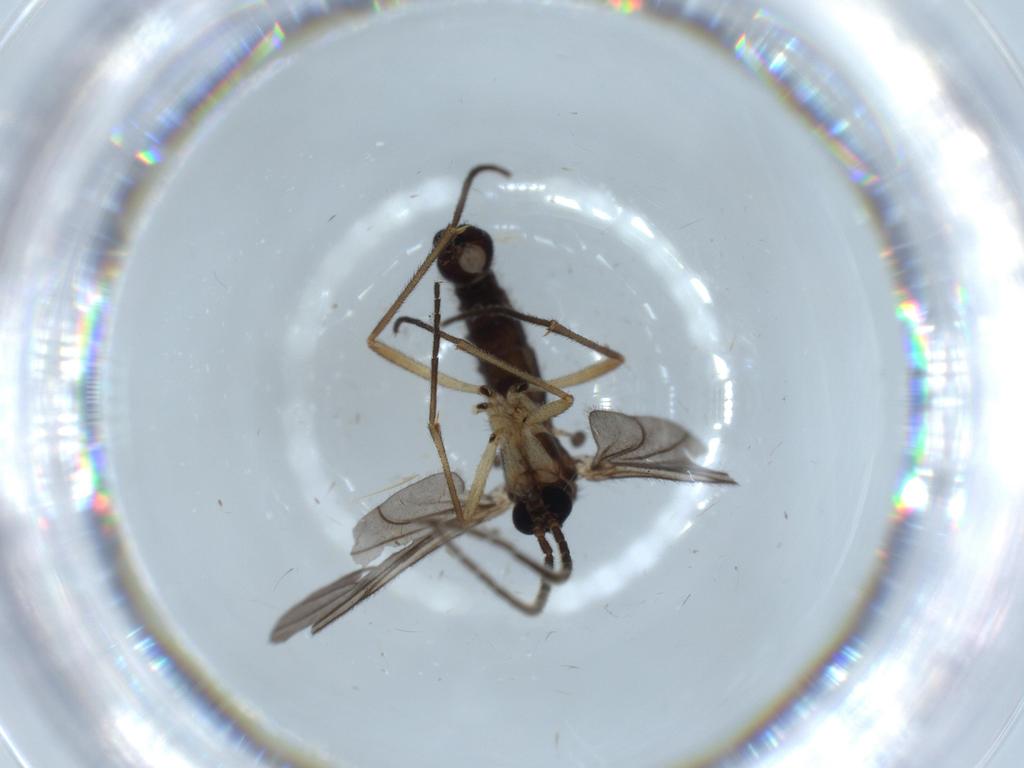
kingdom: Animalia
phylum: Arthropoda
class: Insecta
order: Diptera
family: Sciaridae
